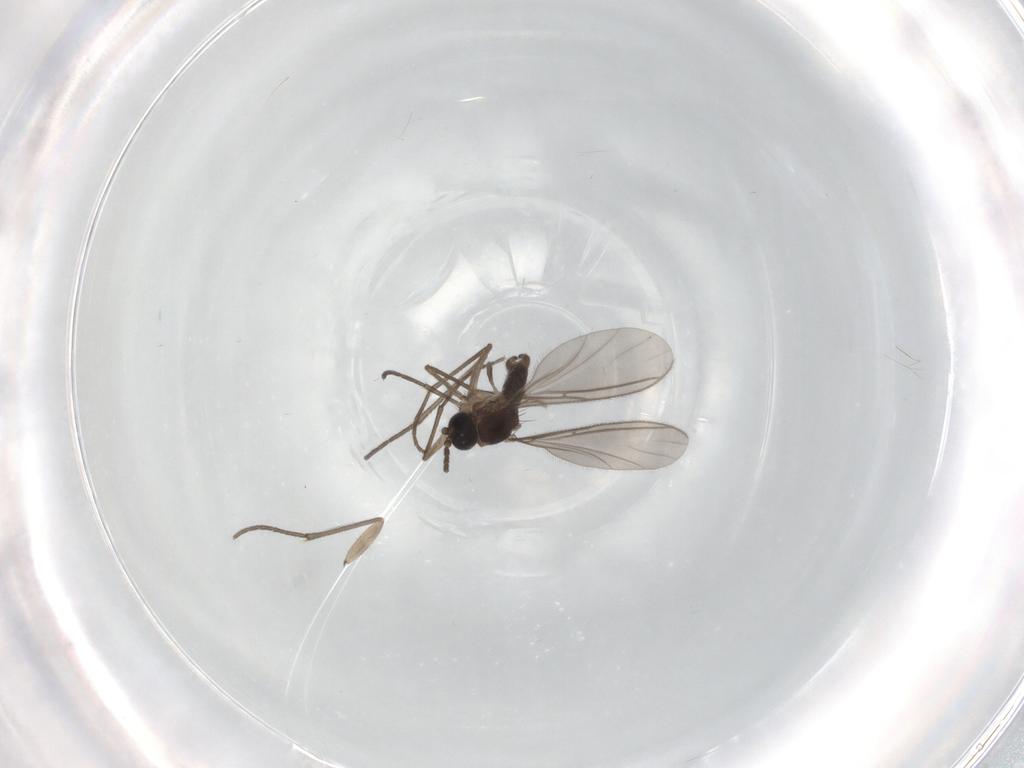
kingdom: Animalia
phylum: Arthropoda
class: Insecta
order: Diptera
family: Sciaridae
